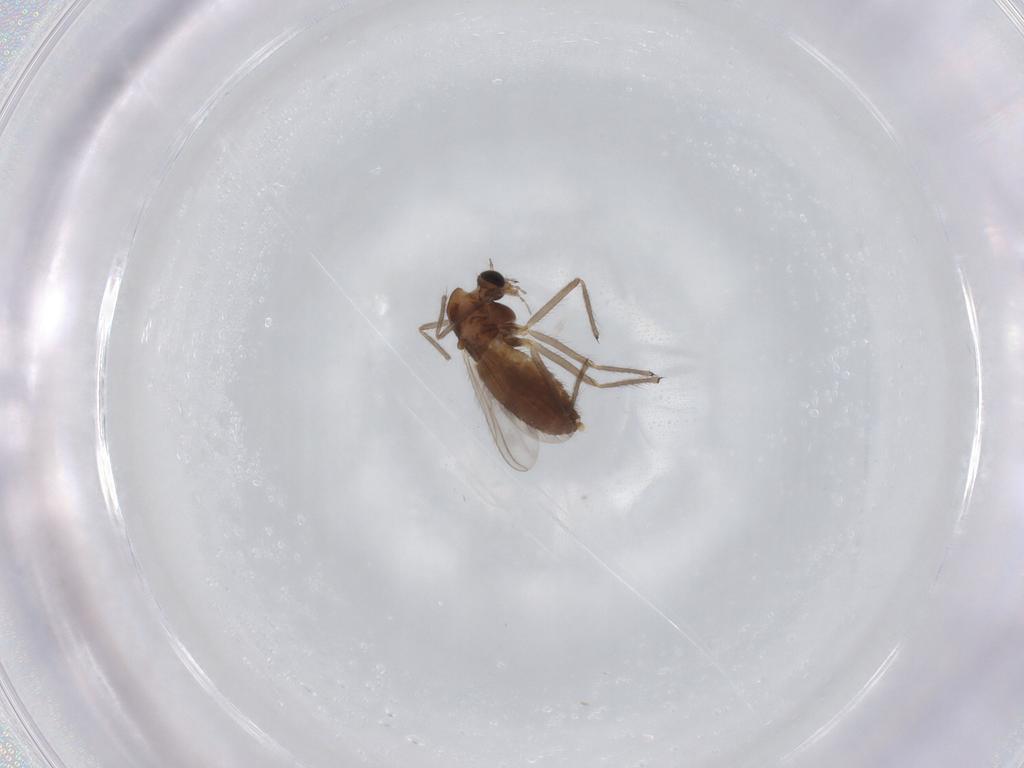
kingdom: Animalia
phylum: Arthropoda
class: Insecta
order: Diptera
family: Chironomidae
